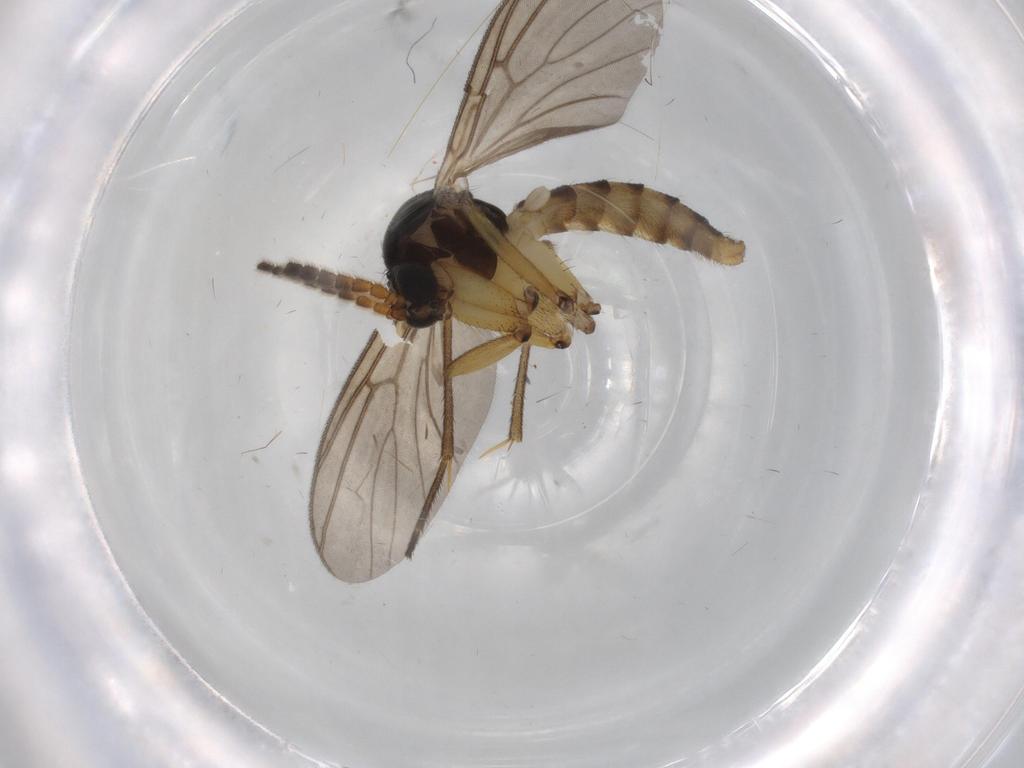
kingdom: Animalia
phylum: Arthropoda
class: Insecta
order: Diptera
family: Mycetophilidae
